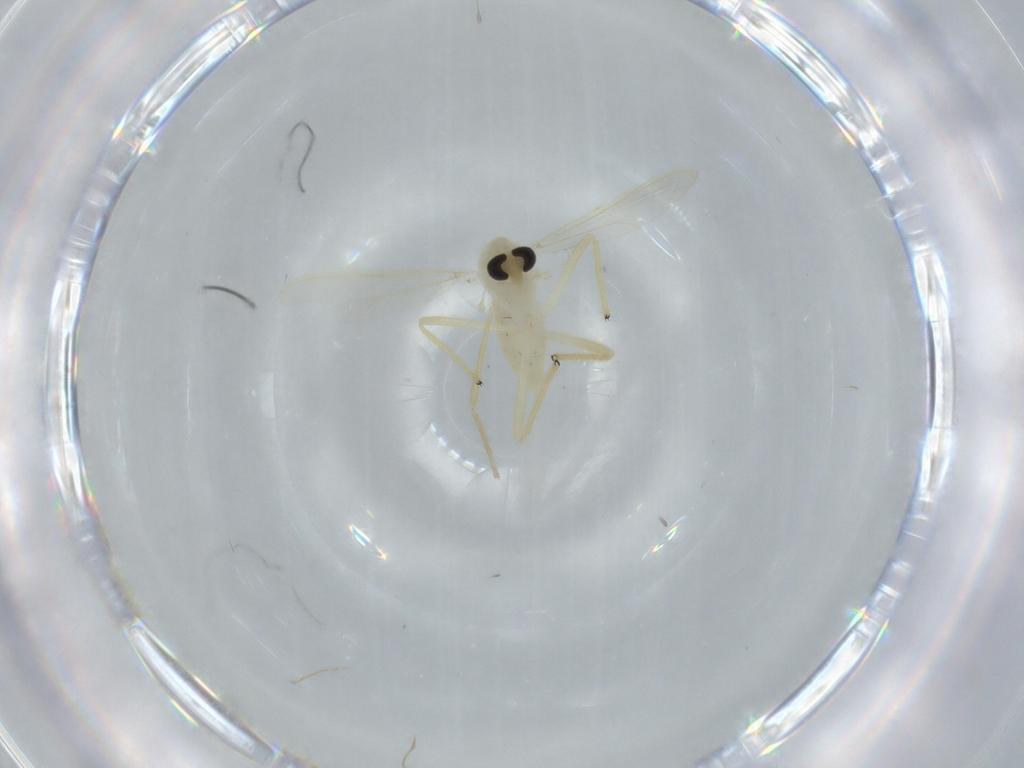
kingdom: Animalia
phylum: Arthropoda
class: Insecta
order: Diptera
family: Chironomidae
